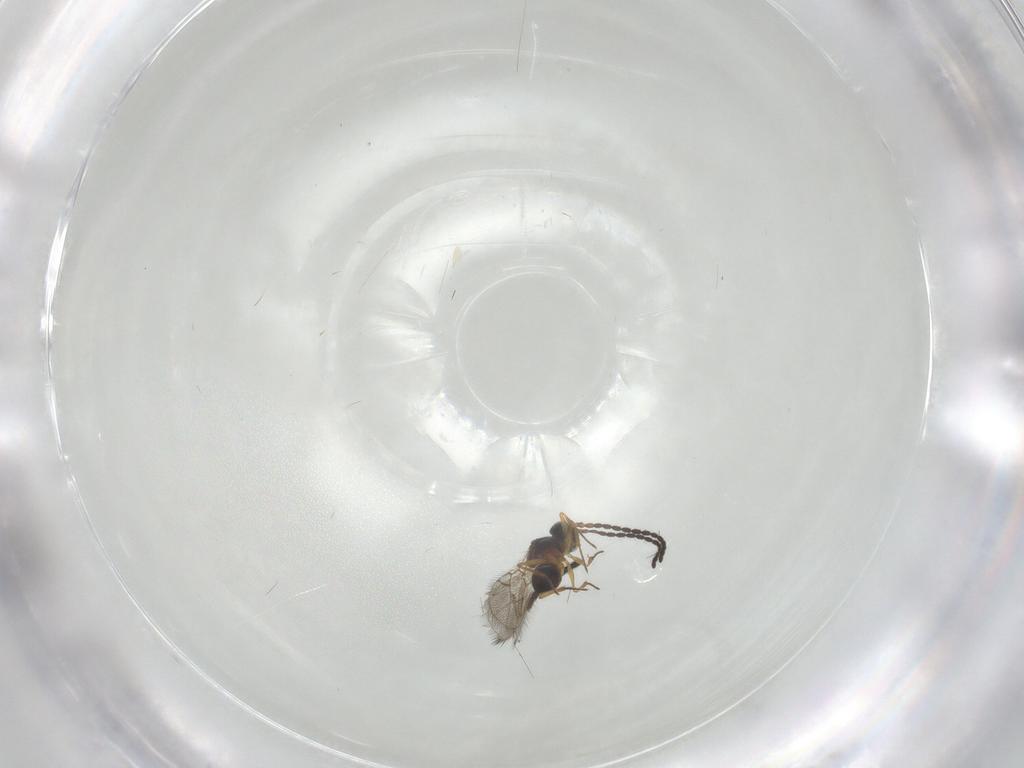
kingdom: Animalia
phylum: Arthropoda
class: Insecta
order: Hymenoptera
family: Figitidae
